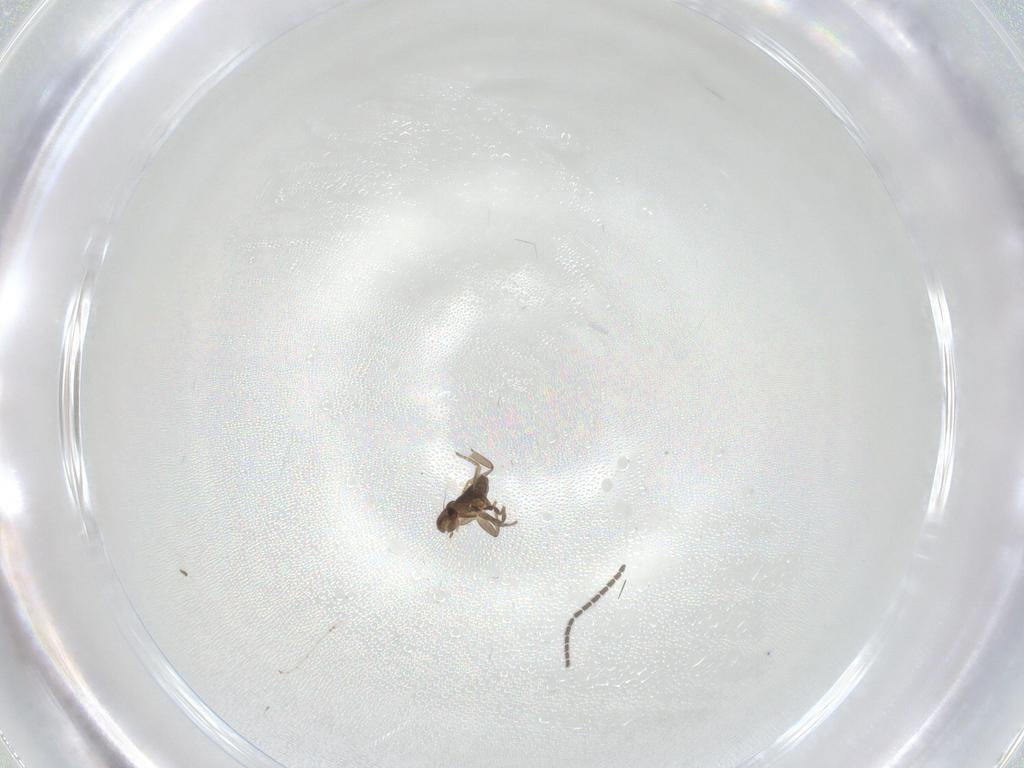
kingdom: Animalia
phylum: Arthropoda
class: Insecta
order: Diptera
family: Sciaridae
